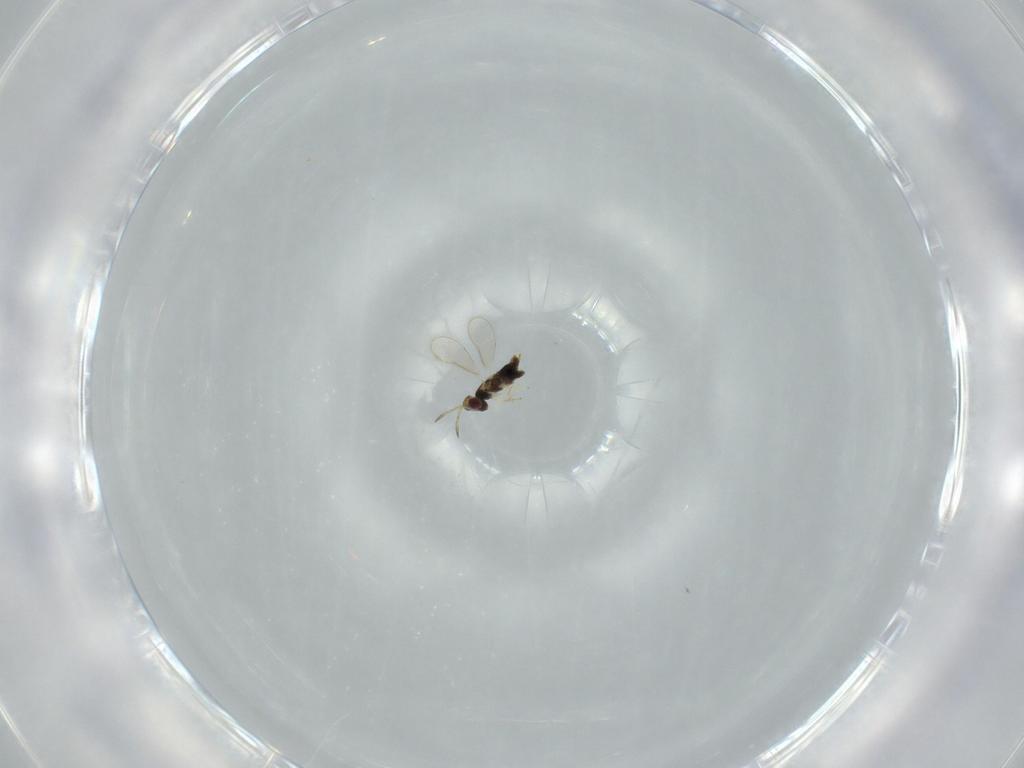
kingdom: Animalia
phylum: Arthropoda
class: Insecta
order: Hymenoptera
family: Aphelinidae
